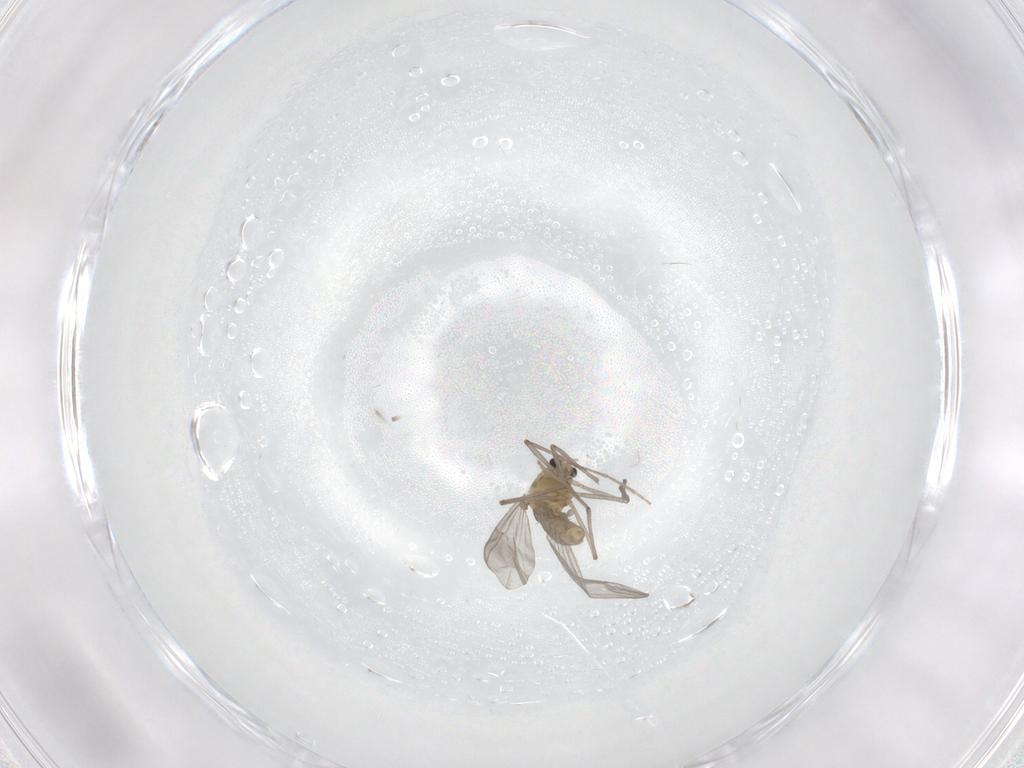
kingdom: Animalia
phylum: Arthropoda
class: Insecta
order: Diptera
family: Chironomidae
